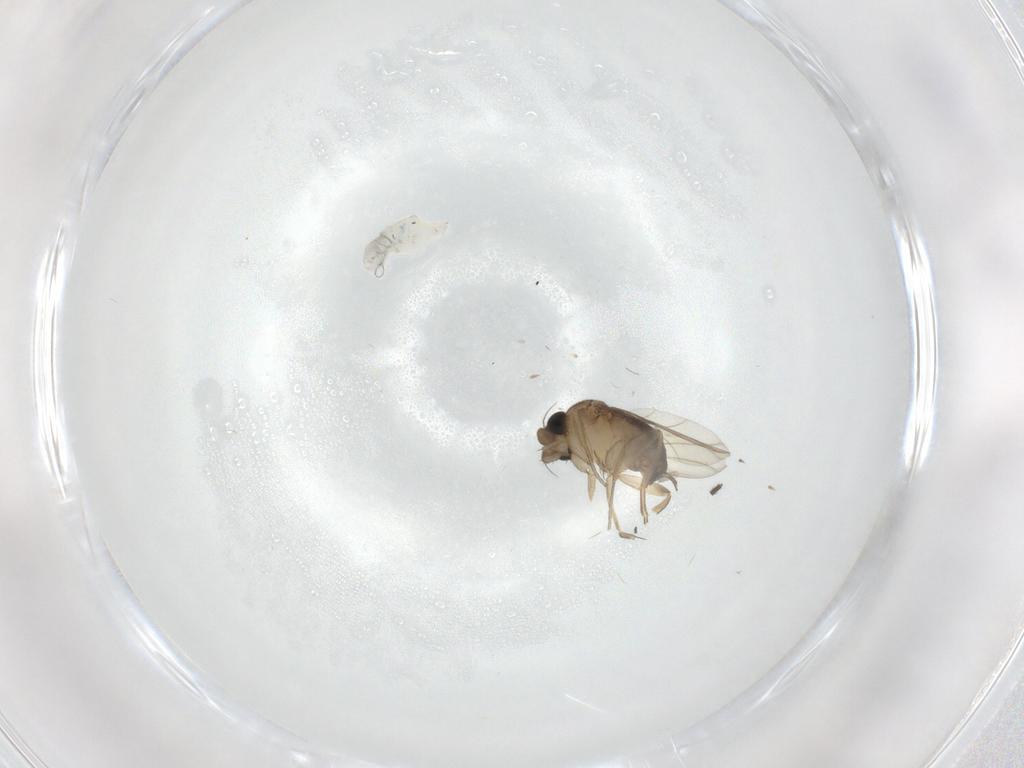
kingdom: Animalia
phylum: Arthropoda
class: Insecta
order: Diptera
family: Phoridae
